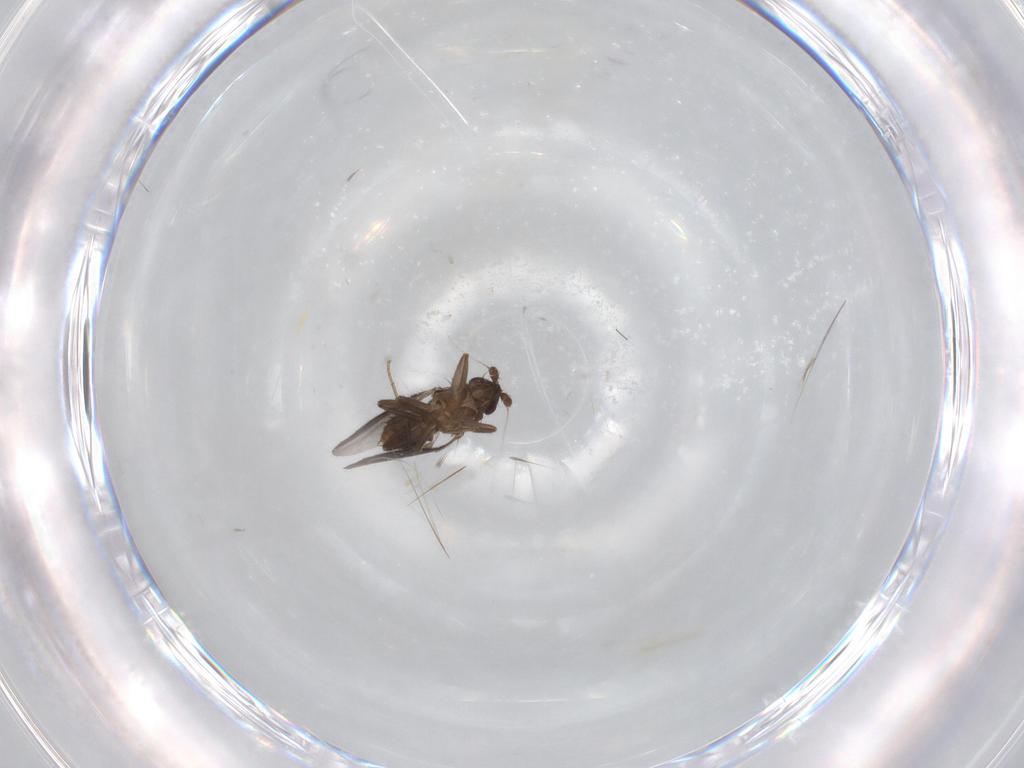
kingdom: Animalia
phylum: Arthropoda
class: Insecta
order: Diptera
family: Sphaeroceridae
